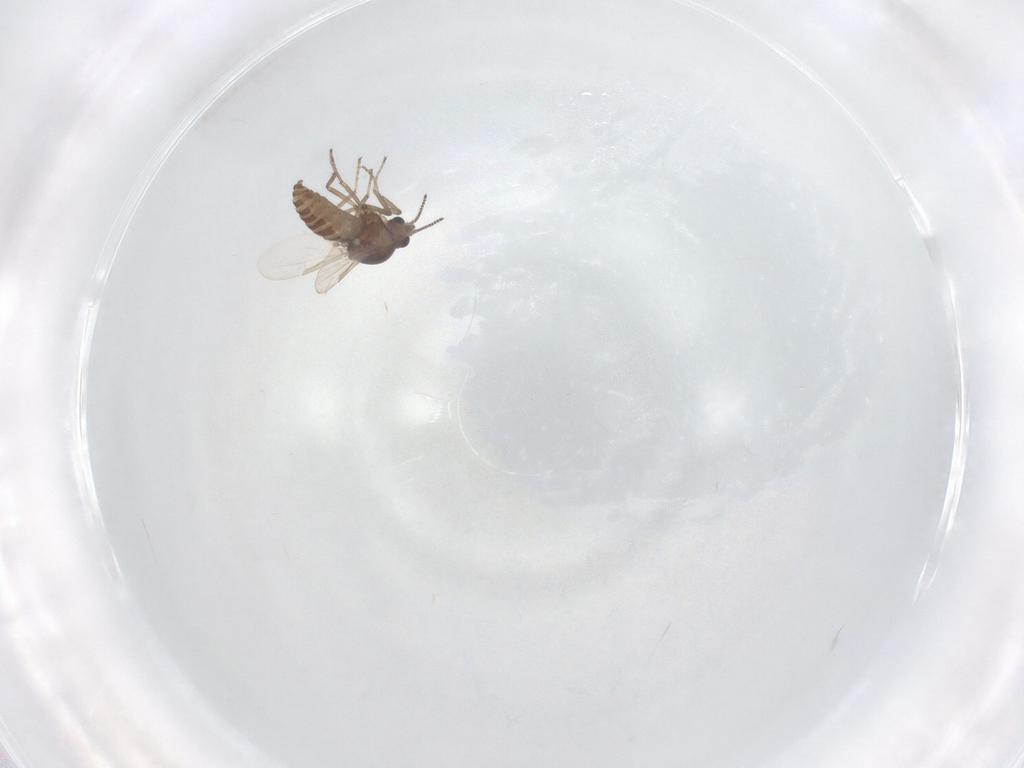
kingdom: Animalia
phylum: Arthropoda
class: Insecta
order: Diptera
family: Ceratopogonidae
